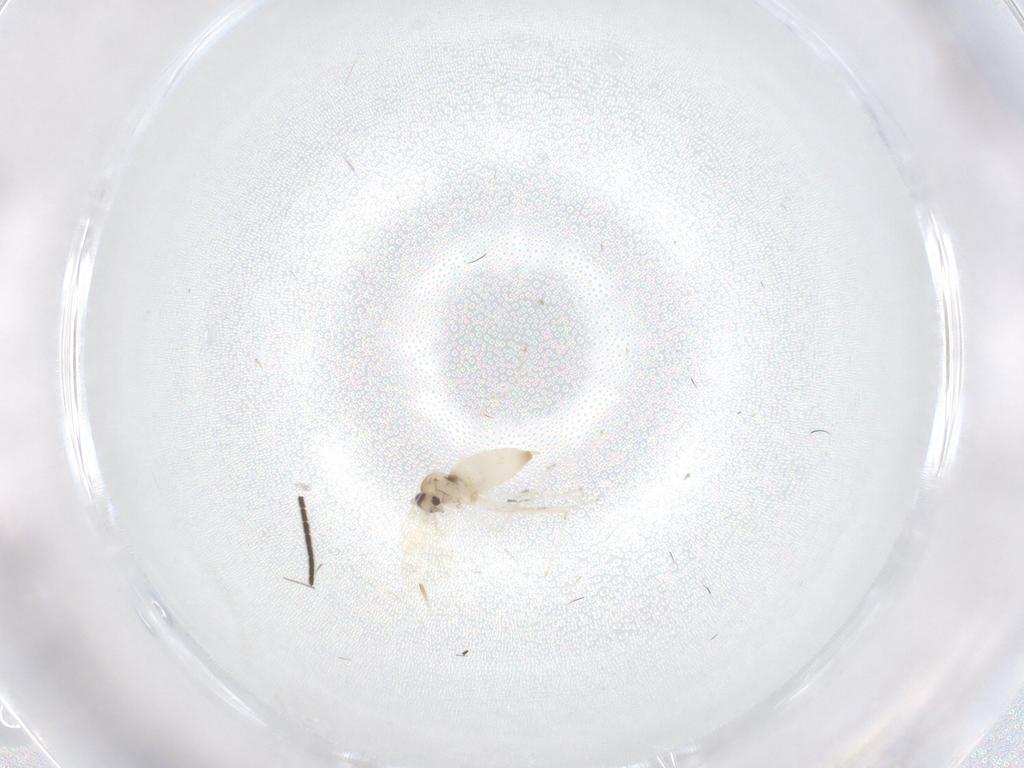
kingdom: Animalia
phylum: Arthropoda
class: Insecta
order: Diptera
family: Cecidomyiidae
